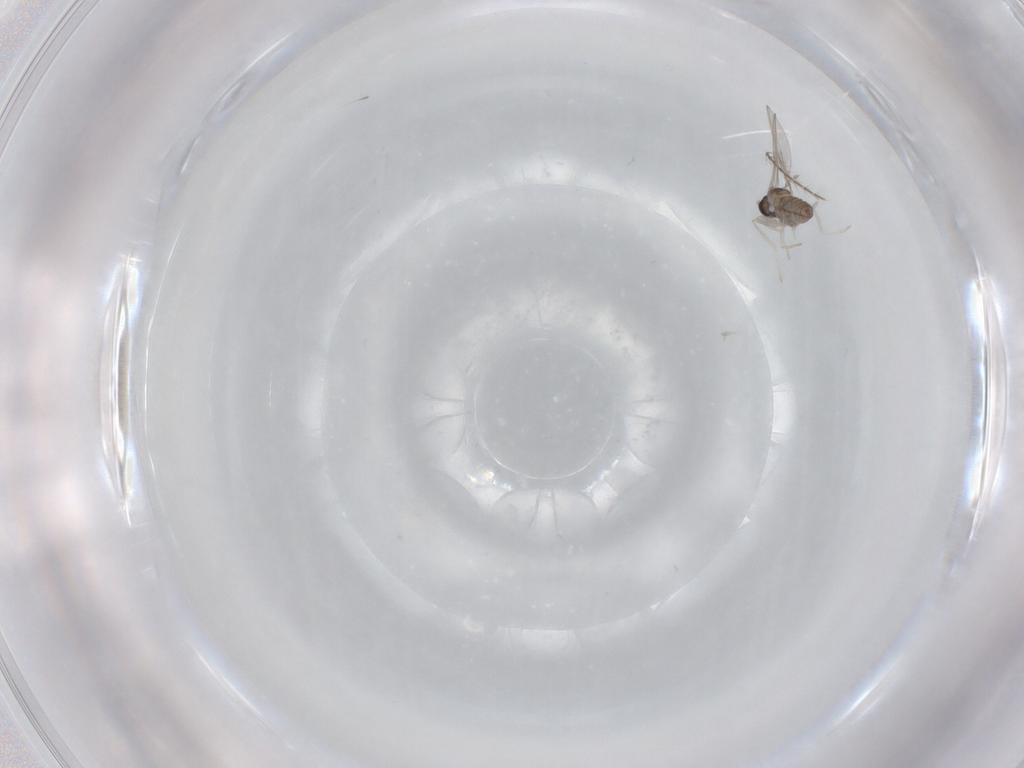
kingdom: Animalia
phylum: Arthropoda
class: Insecta
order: Diptera
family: Cecidomyiidae
